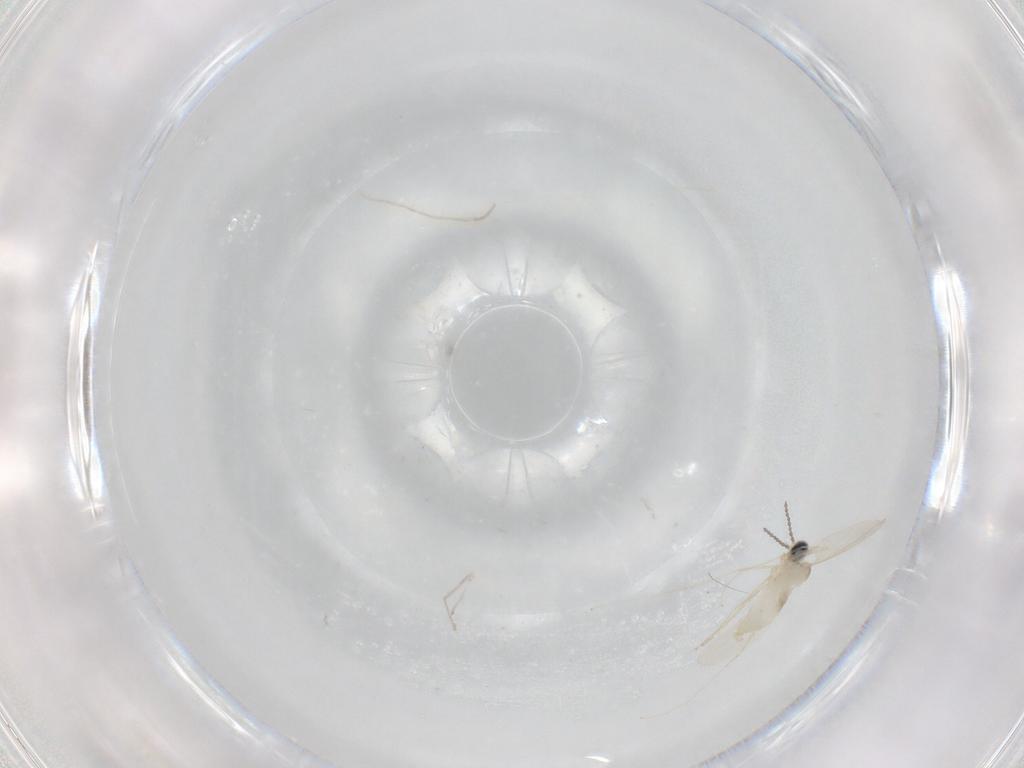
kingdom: Animalia
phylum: Arthropoda
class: Insecta
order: Diptera
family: Cecidomyiidae
